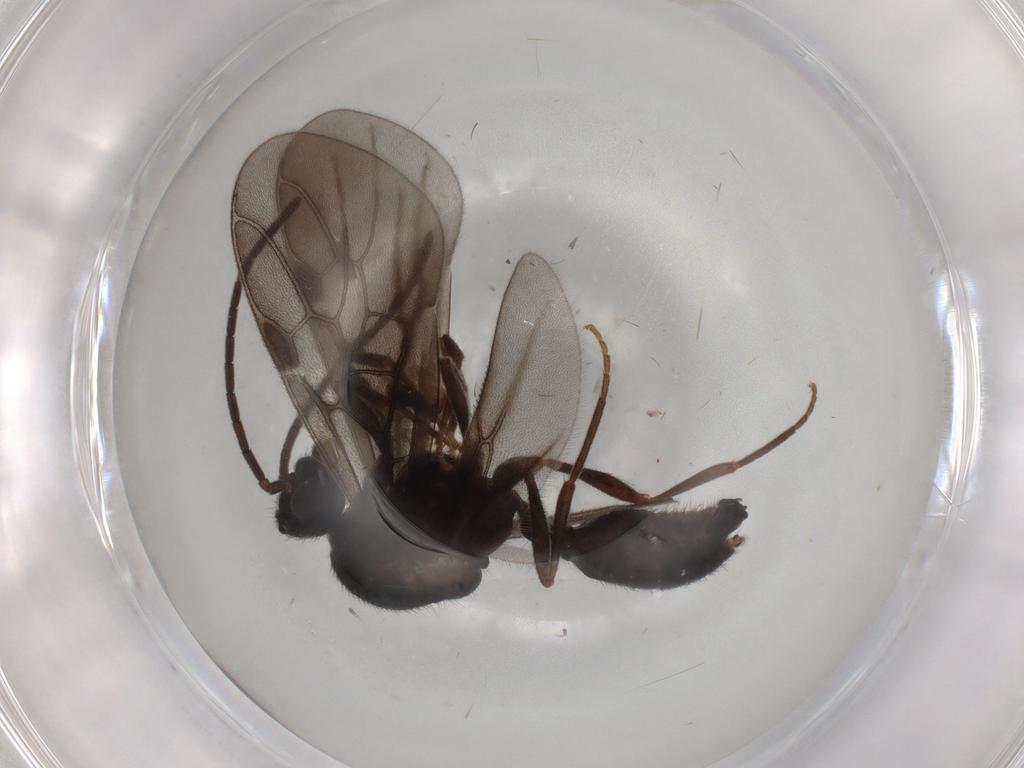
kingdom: Animalia
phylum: Arthropoda
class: Insecta
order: Hymenoptera
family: Formicidae
